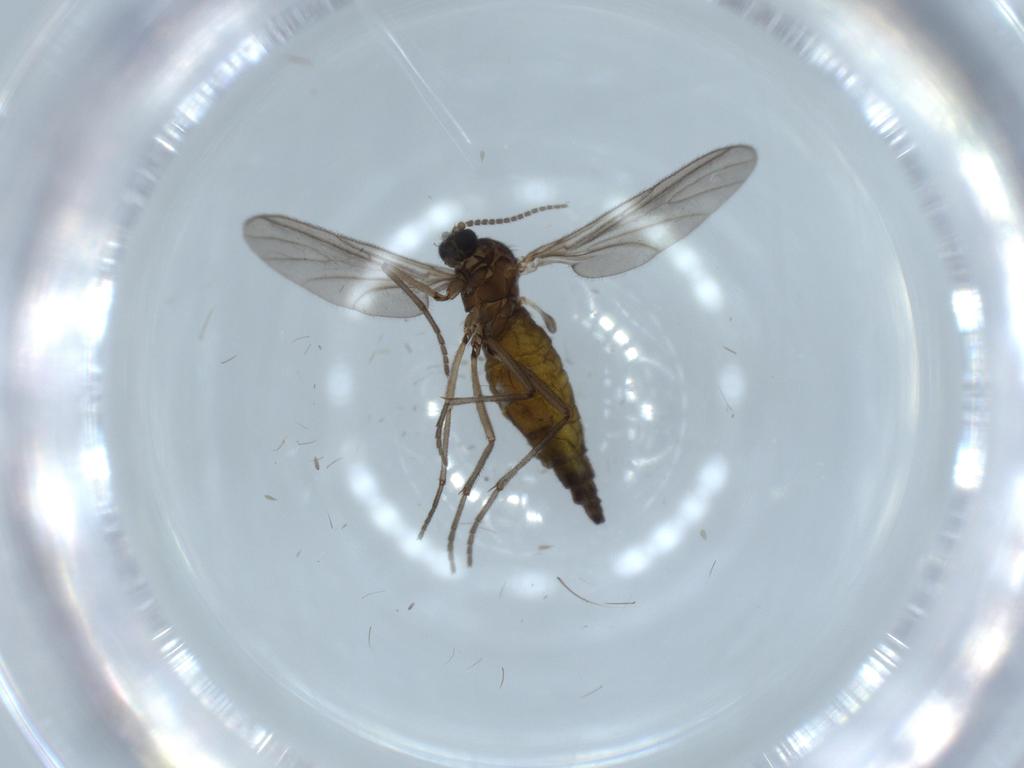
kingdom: Animalia
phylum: Arthropoda
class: Insecta
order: Diptera
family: Sciaridae
